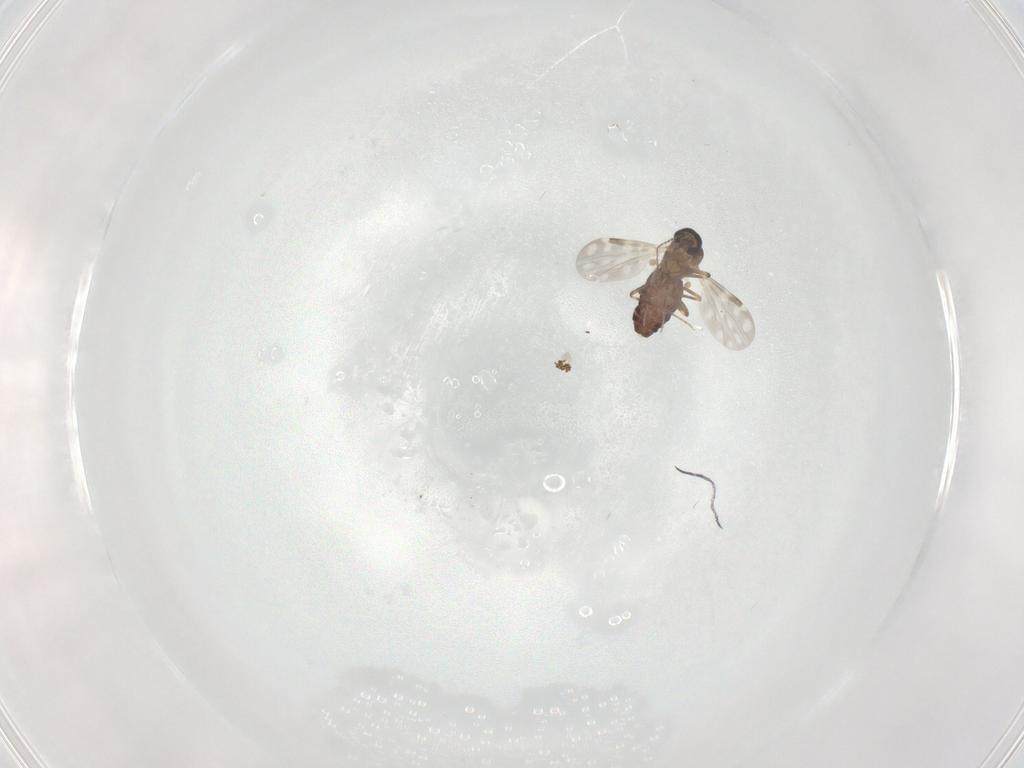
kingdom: Animalia
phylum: Arthropoda
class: Insecta
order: Diptera
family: Ceratopogonidae
